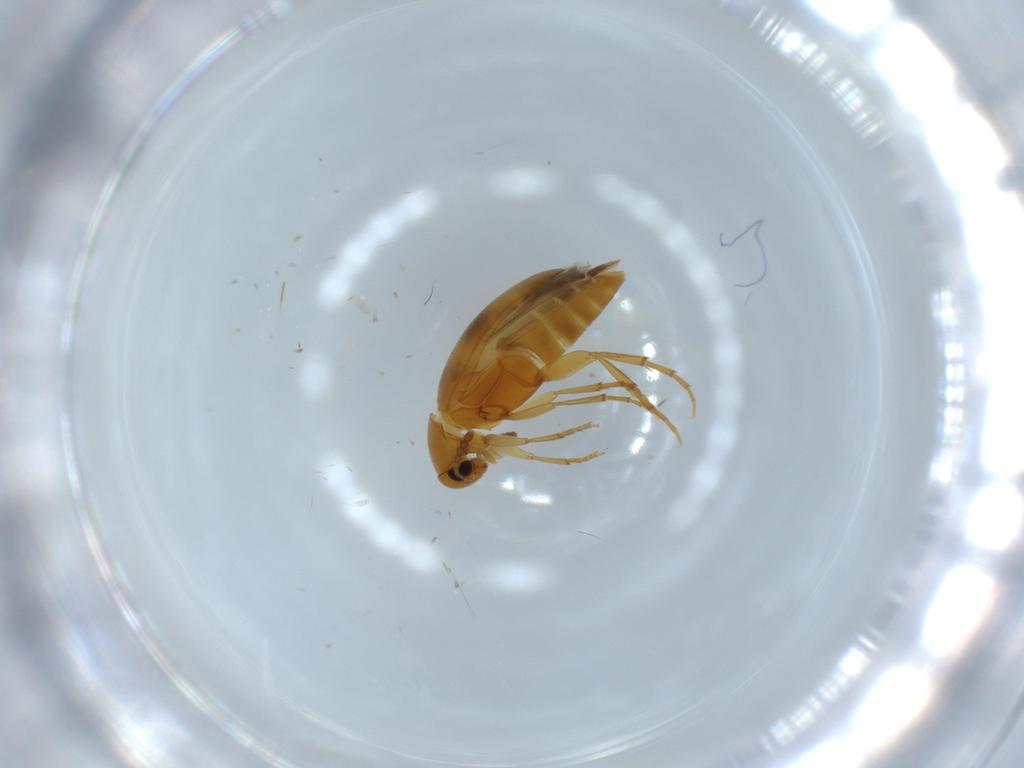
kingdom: Animalia
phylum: Arthropoda
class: Insecta
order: Coleoptera
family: Chrysomelidae
